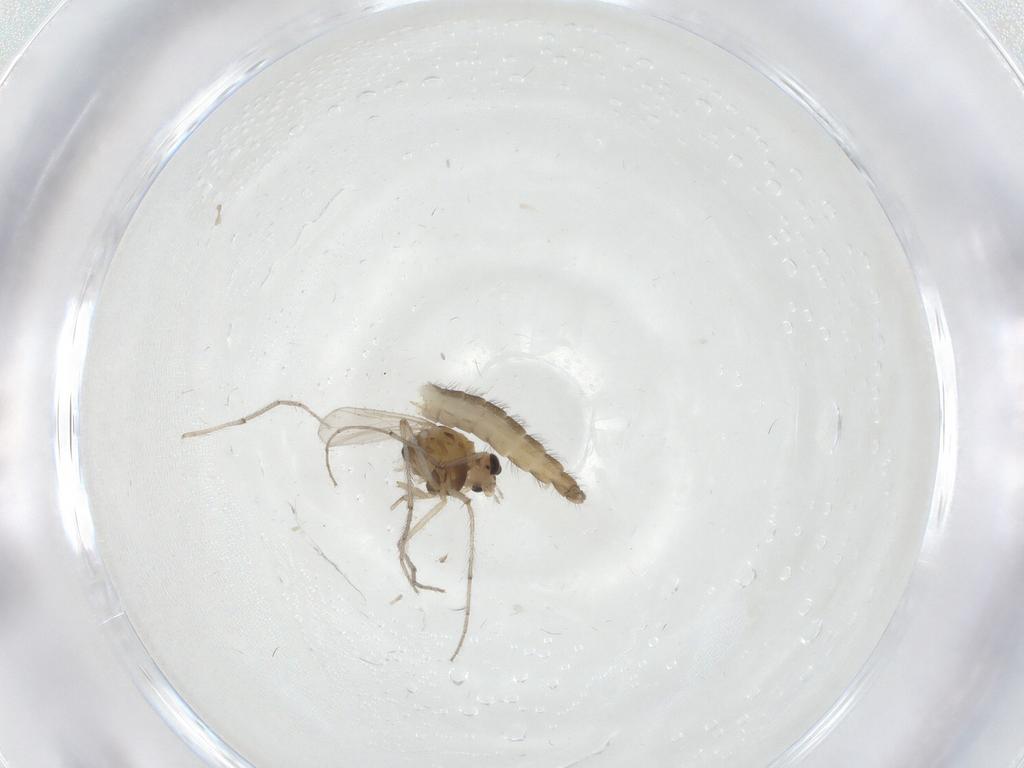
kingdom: Animalia
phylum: Arthropoda
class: Insecta
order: Diptera
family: Chironomidae
